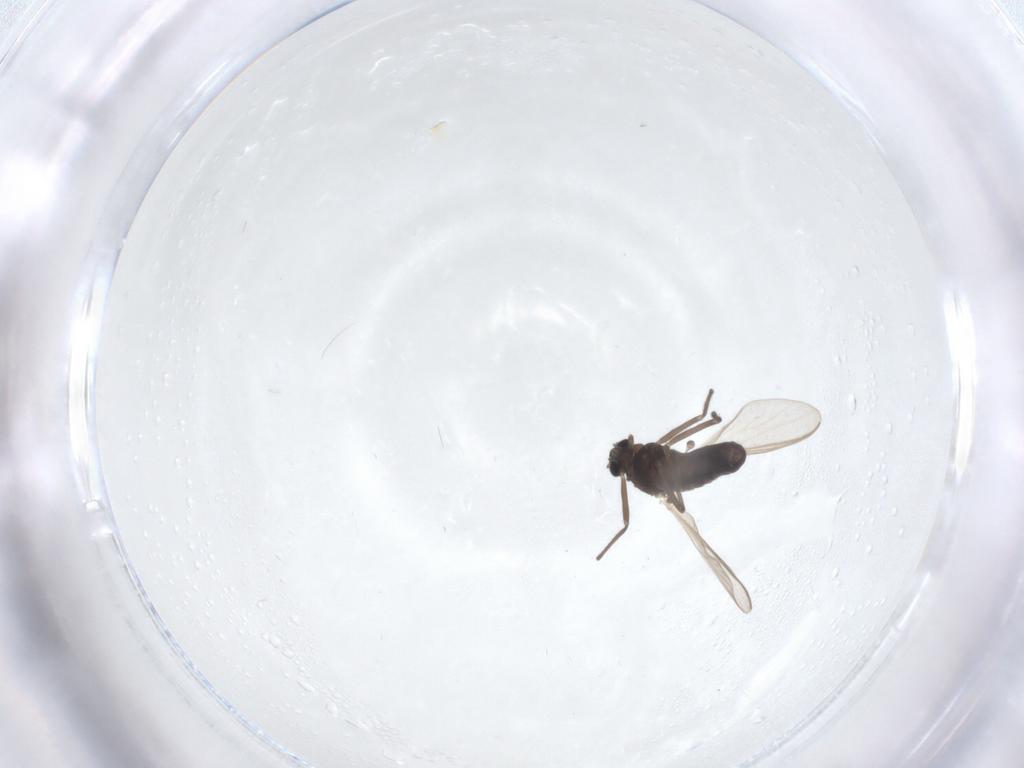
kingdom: Animalia
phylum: Arthropoda
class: Insecta
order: Diptera
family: Chironomidae
